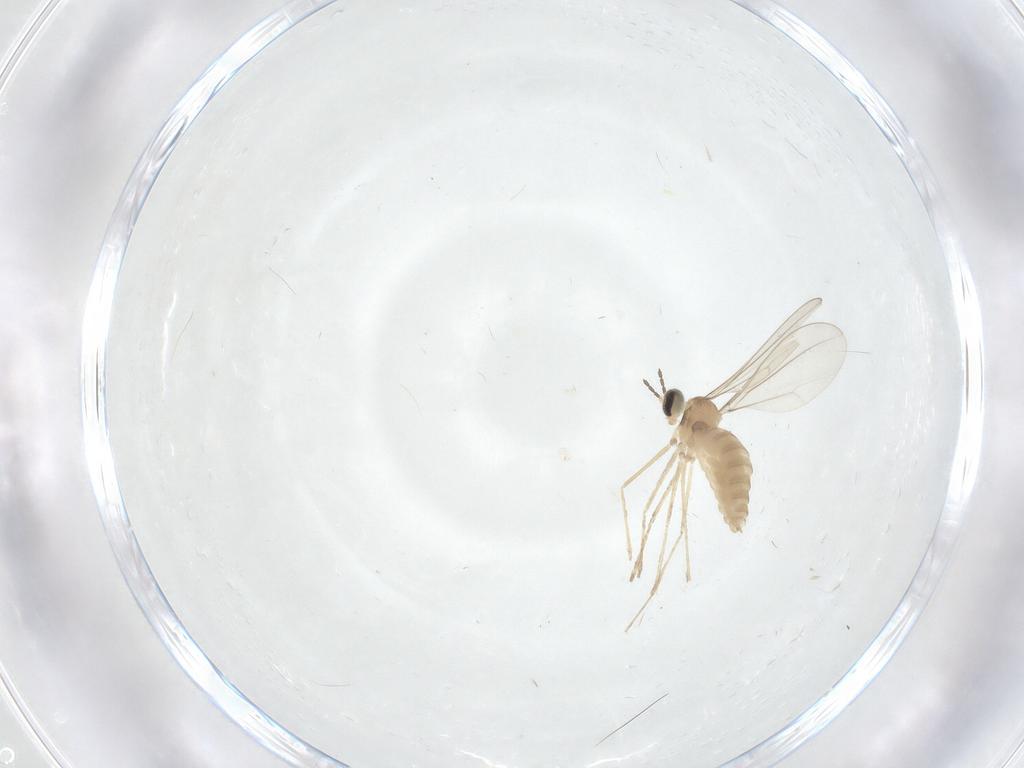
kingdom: Animalia
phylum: Arthropoda
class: Insecta
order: Diptera
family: Cecidomyiidae
